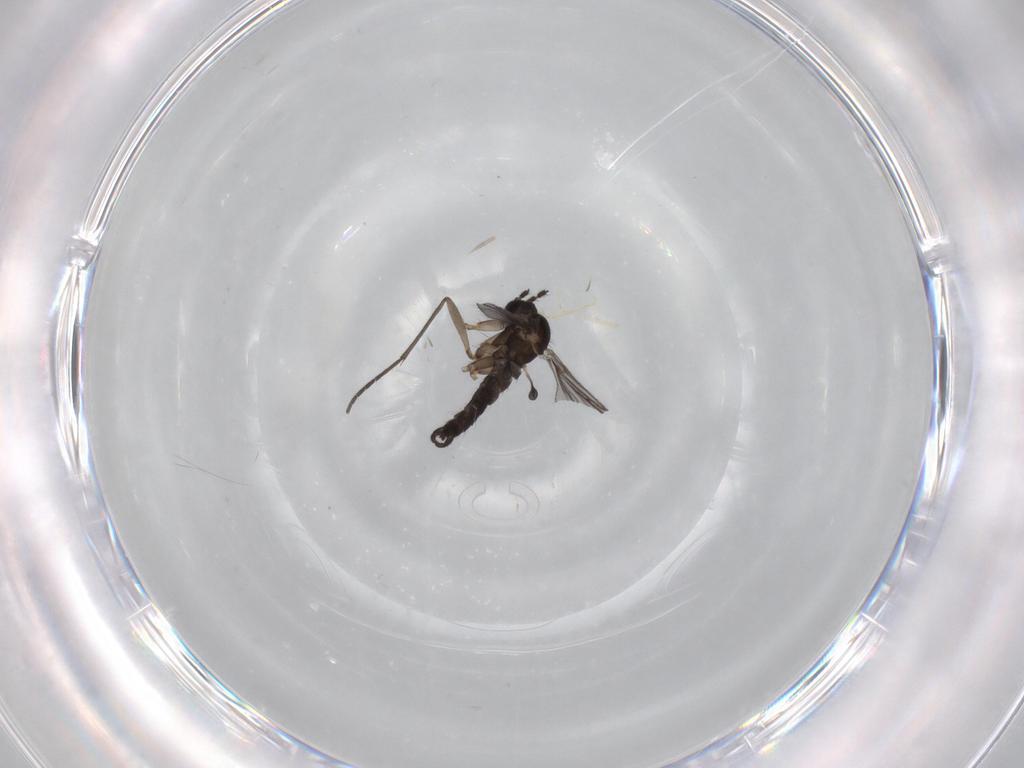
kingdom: Animalia
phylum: Arthropoda
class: Insecta
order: Diptera
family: Sciaridae
